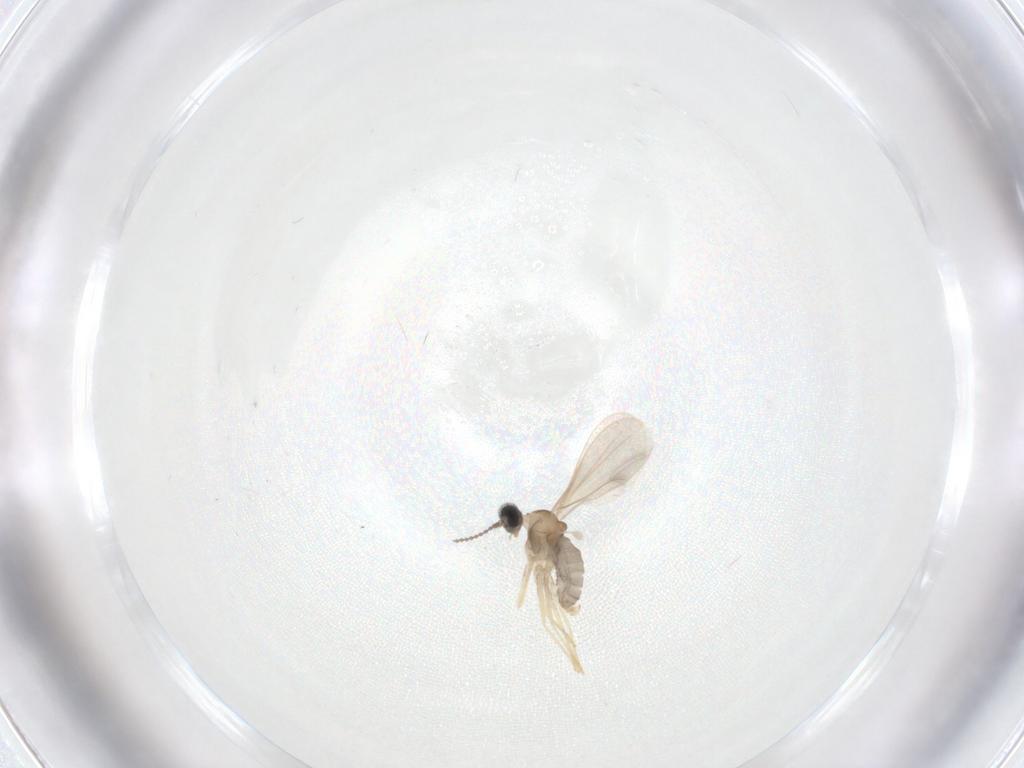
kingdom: Animalia
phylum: Arthropoda
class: Insecta
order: Diptera
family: Cecidomyiidae
